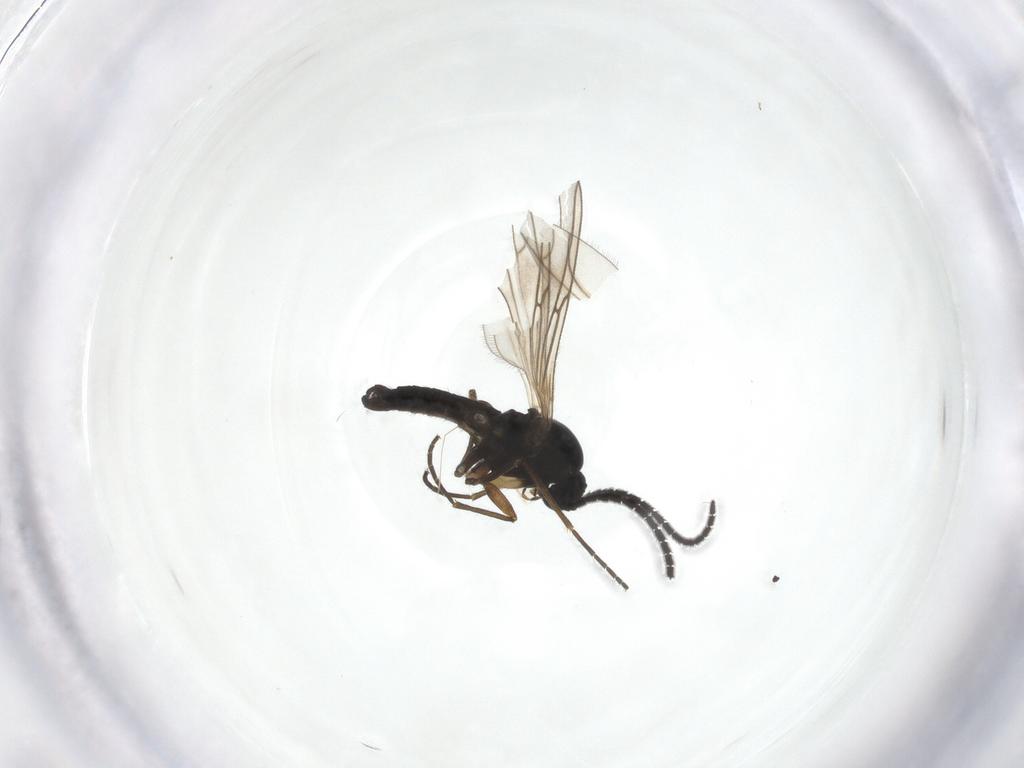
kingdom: Animalia
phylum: Arthropoda
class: Insecta
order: Diptera
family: Sciaridae
